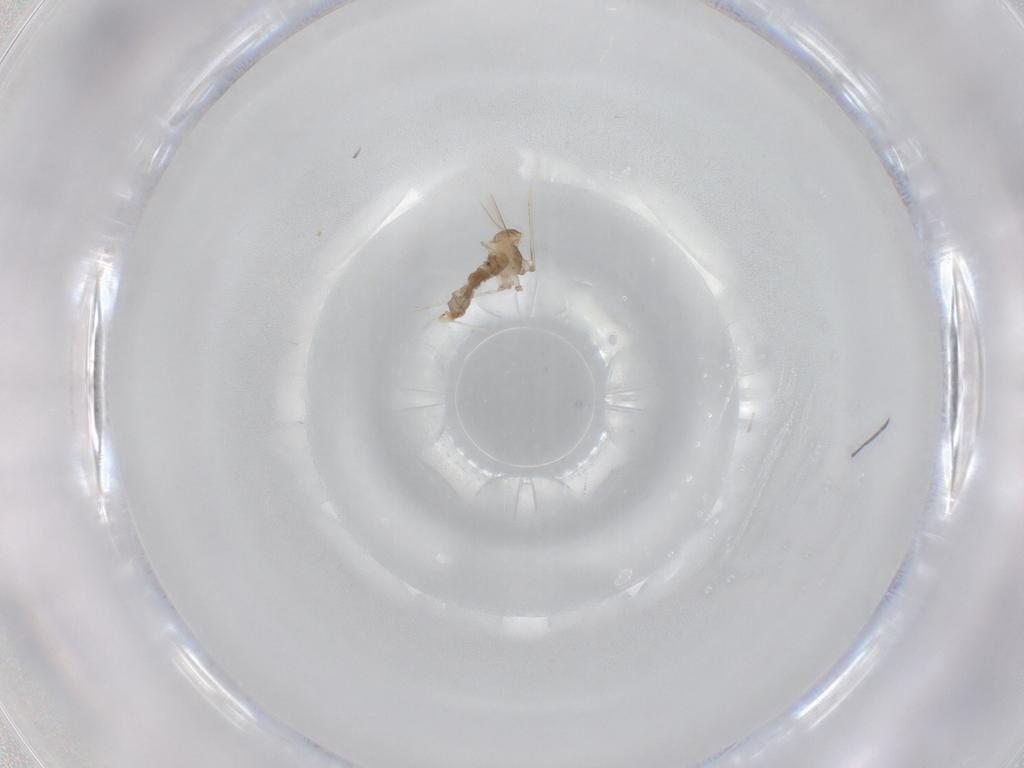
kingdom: Animalia
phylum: Arthropoda
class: Insecta
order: Diptera
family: Cecidomyiidae
